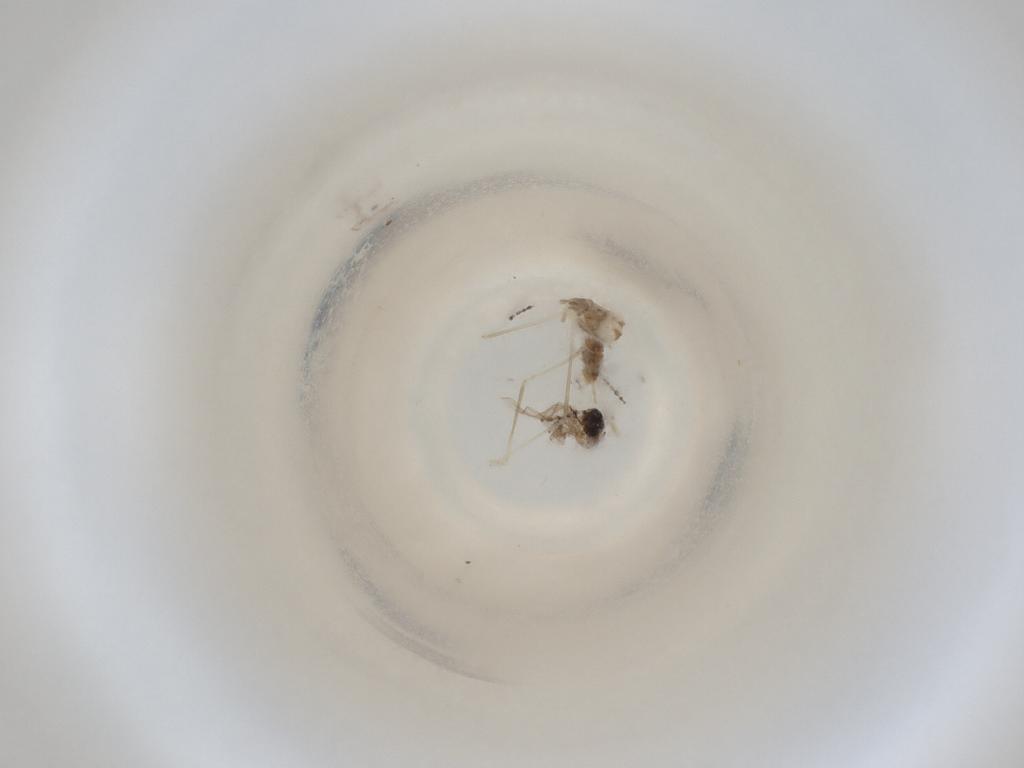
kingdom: Animalia
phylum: Arthropoda
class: Insecta
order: Diptera
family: Cecidomyiidae
